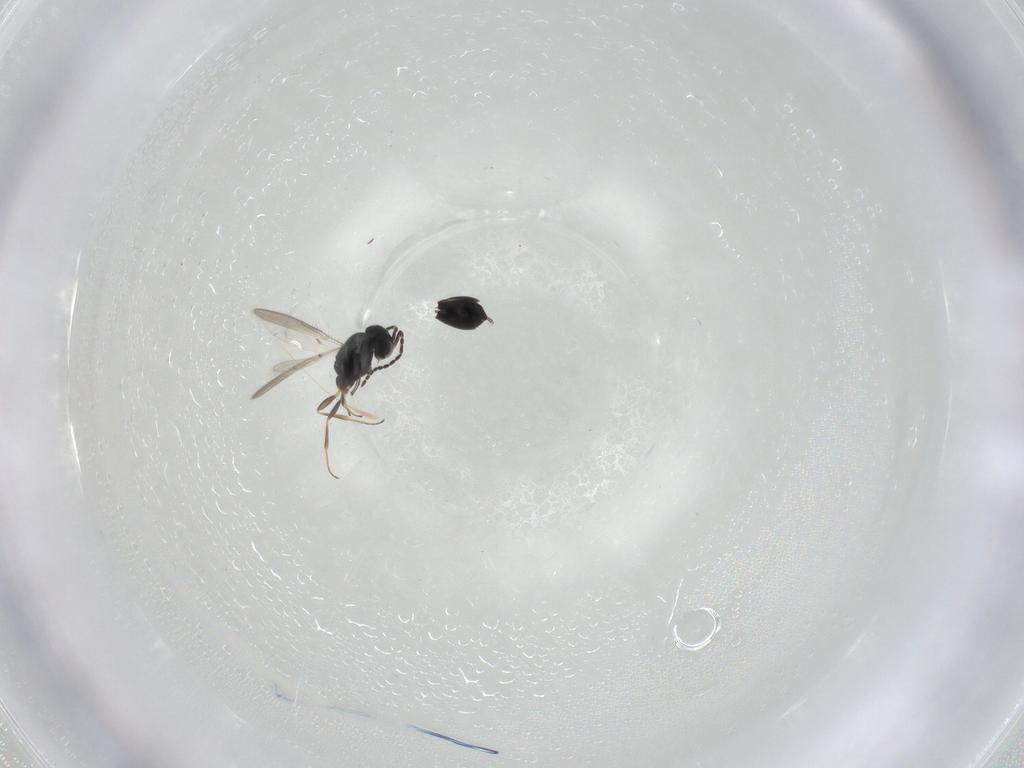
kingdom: Animalia
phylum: Arthropoda
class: Insecta
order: Hymenoptera
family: Scelionidae
